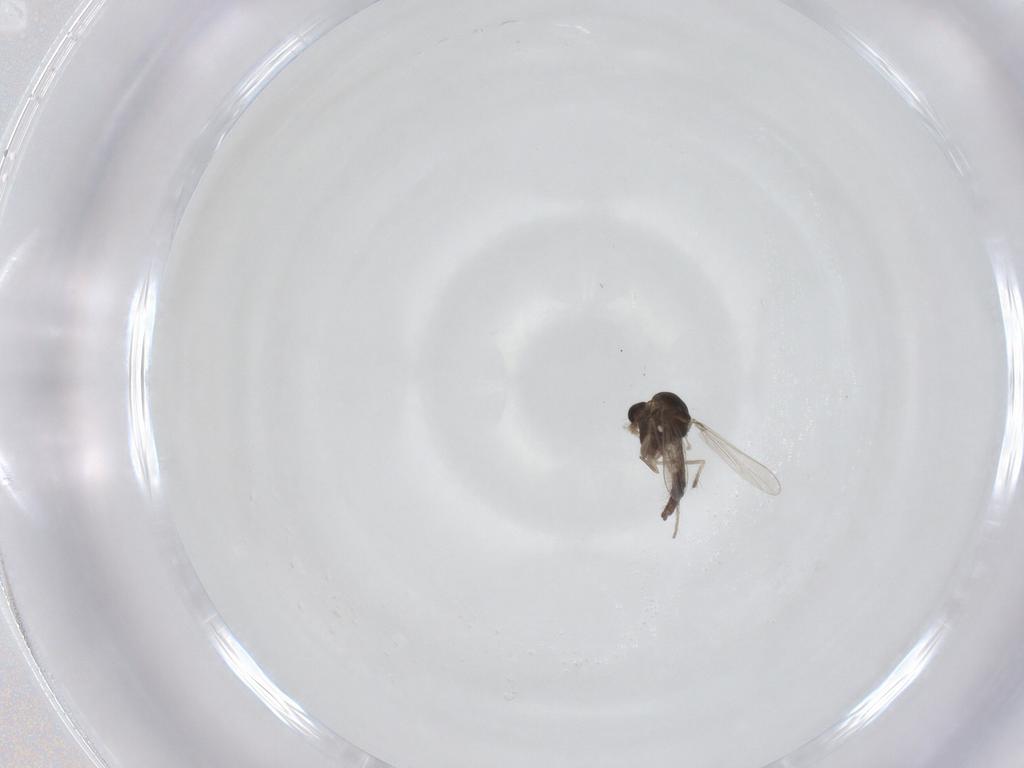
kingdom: Animalia
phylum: Arthropoda
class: Insecta
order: Diptera
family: Chironomidae
